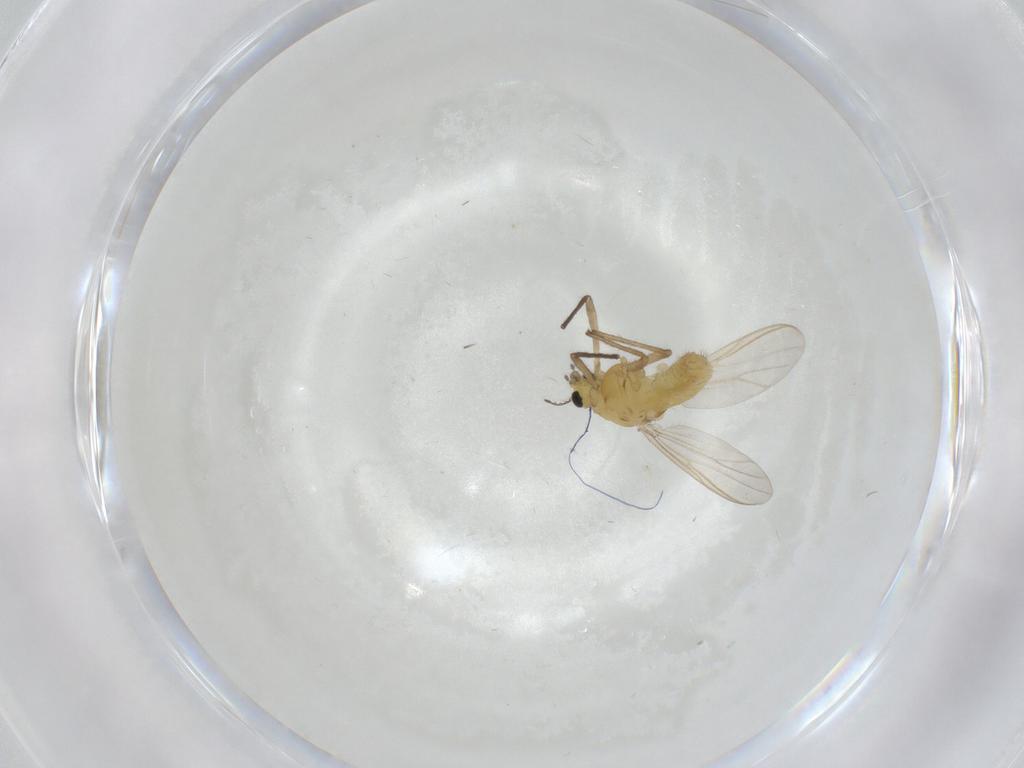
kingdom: Animalia
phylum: Arthropoda
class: Insecta
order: Diptera
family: Chironomidae
